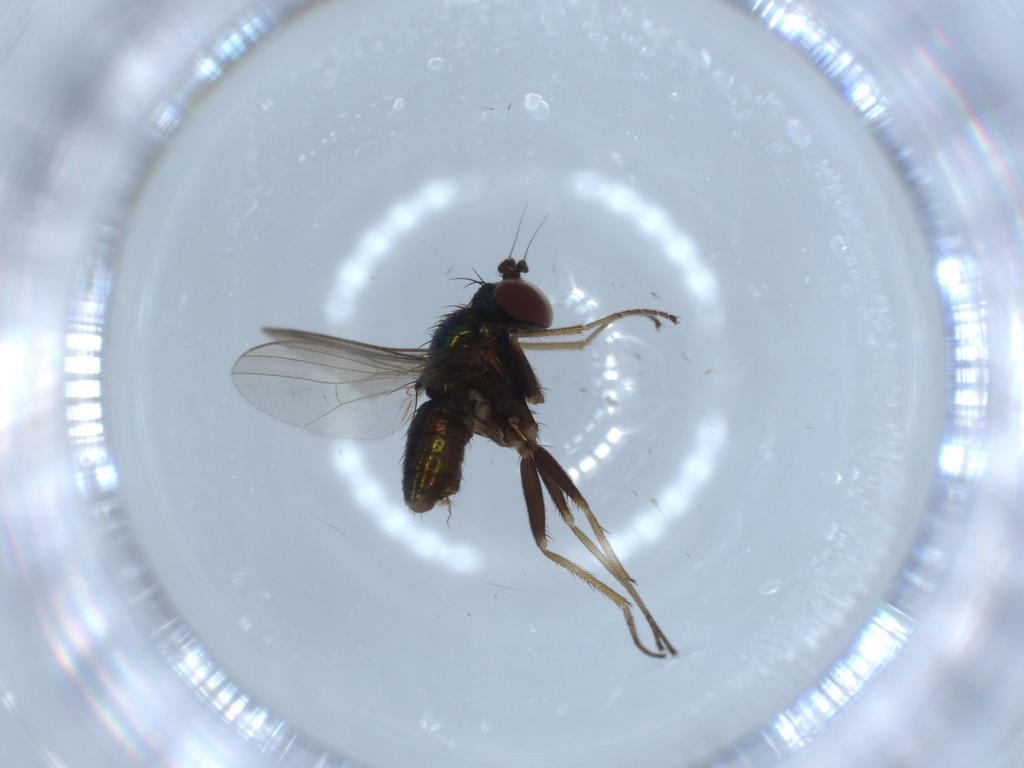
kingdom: Animalia
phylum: Arthropoda
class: Insecta
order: Diptera
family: Dolichopodidae
